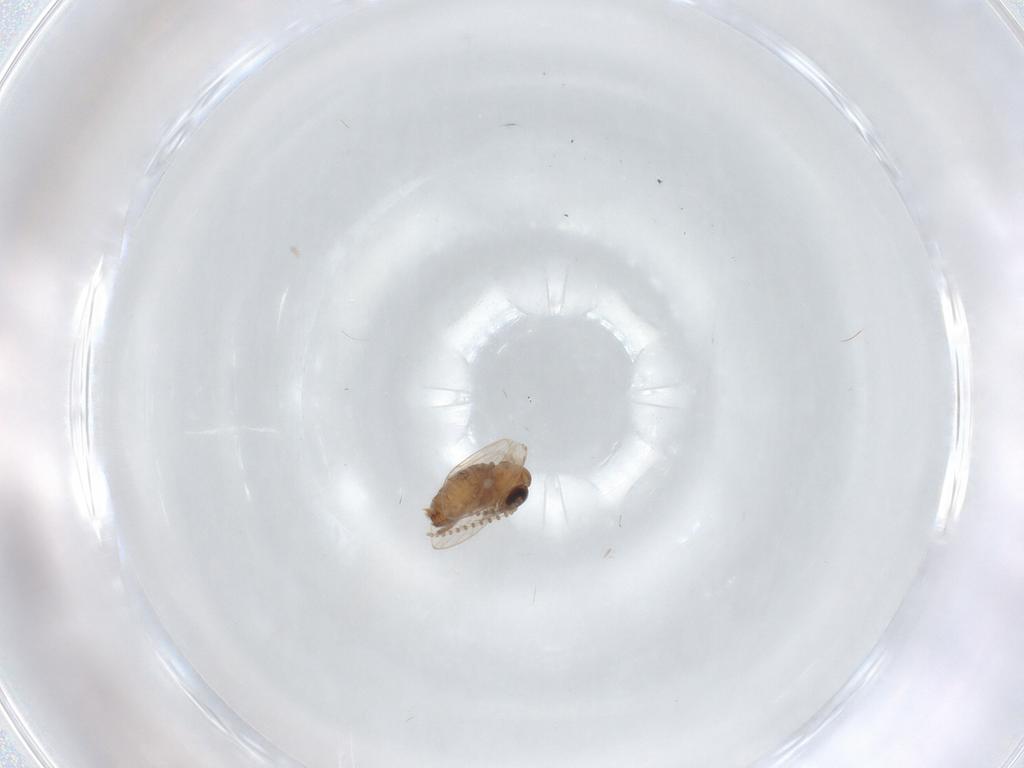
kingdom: Animalia
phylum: Arthropoda
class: Insecta
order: Diptera
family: Psychodidae
